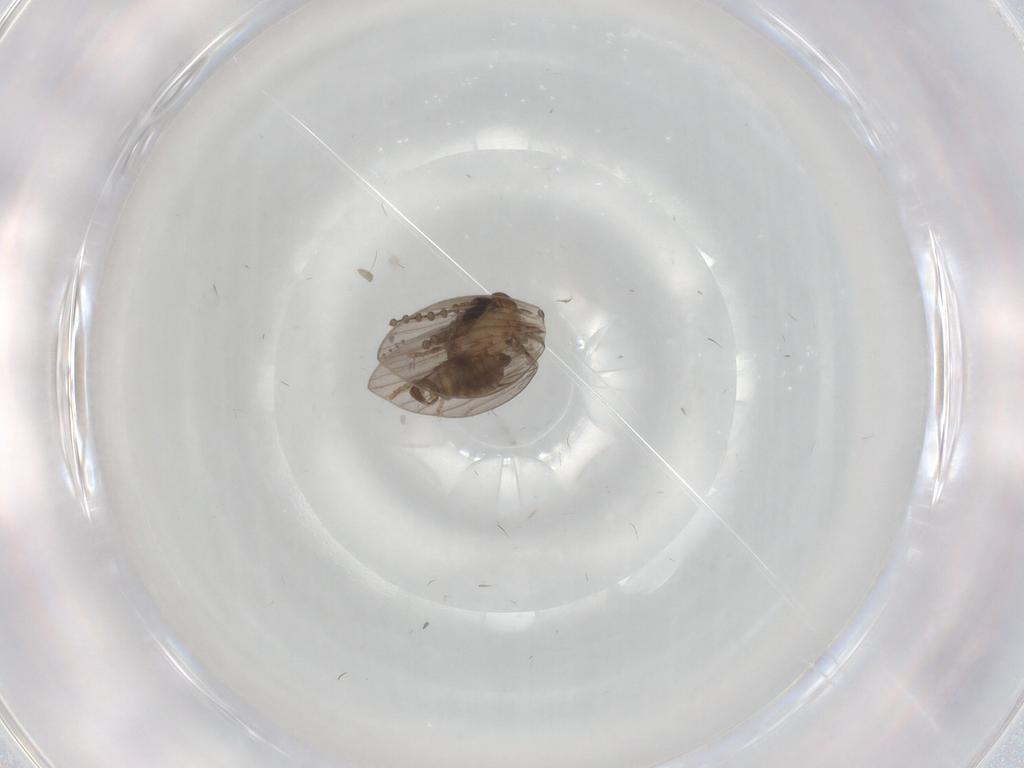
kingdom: Animalia
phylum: Arthropoda
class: Insecta
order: Diptera
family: Psychodidae
